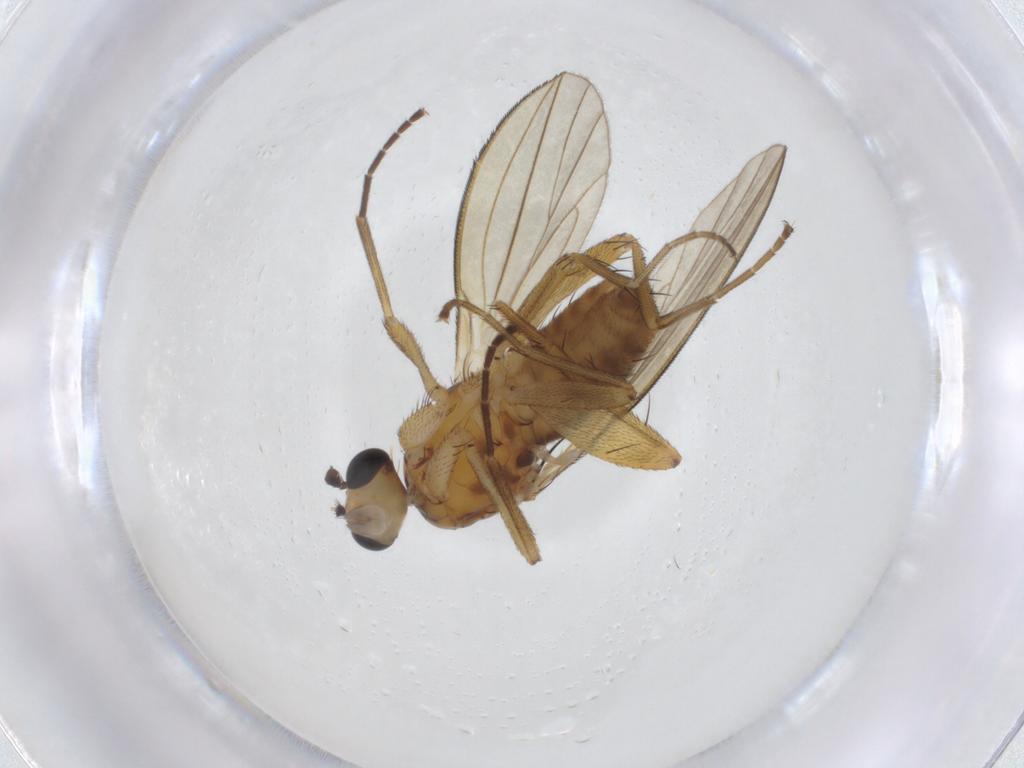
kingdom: Animalia
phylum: Arthropoda
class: Insecta
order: Diptera
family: Lonchopteridae
